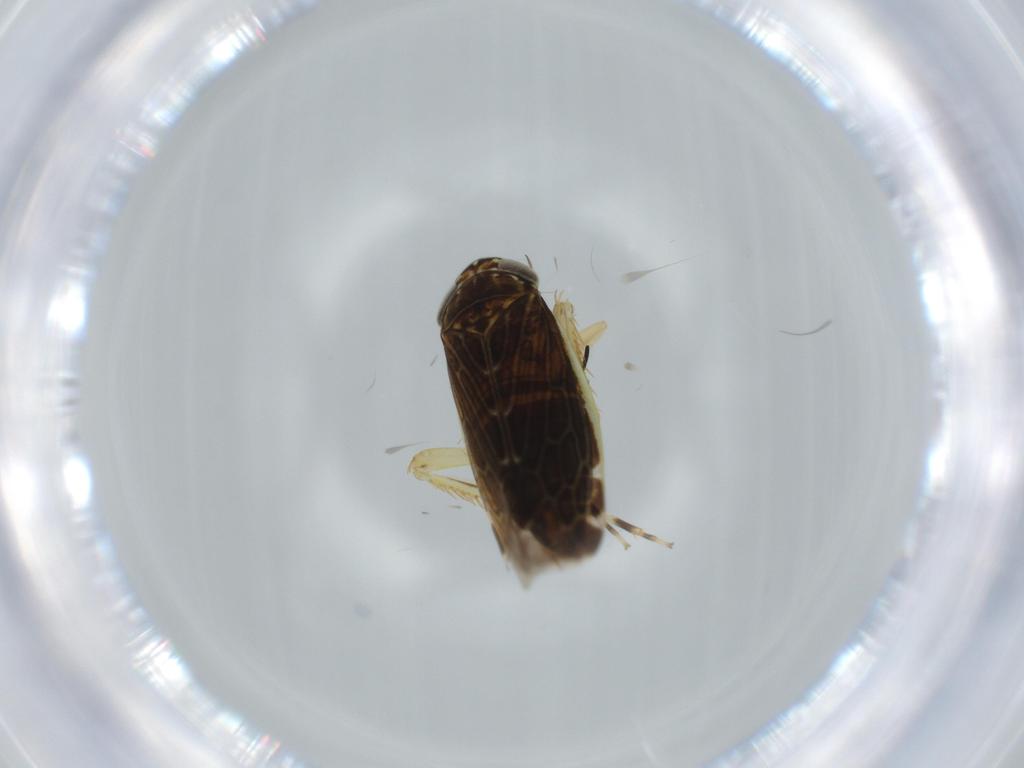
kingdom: Animalia
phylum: Arthropoda
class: Insecta
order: Hemiptera
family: Cicadellidae
